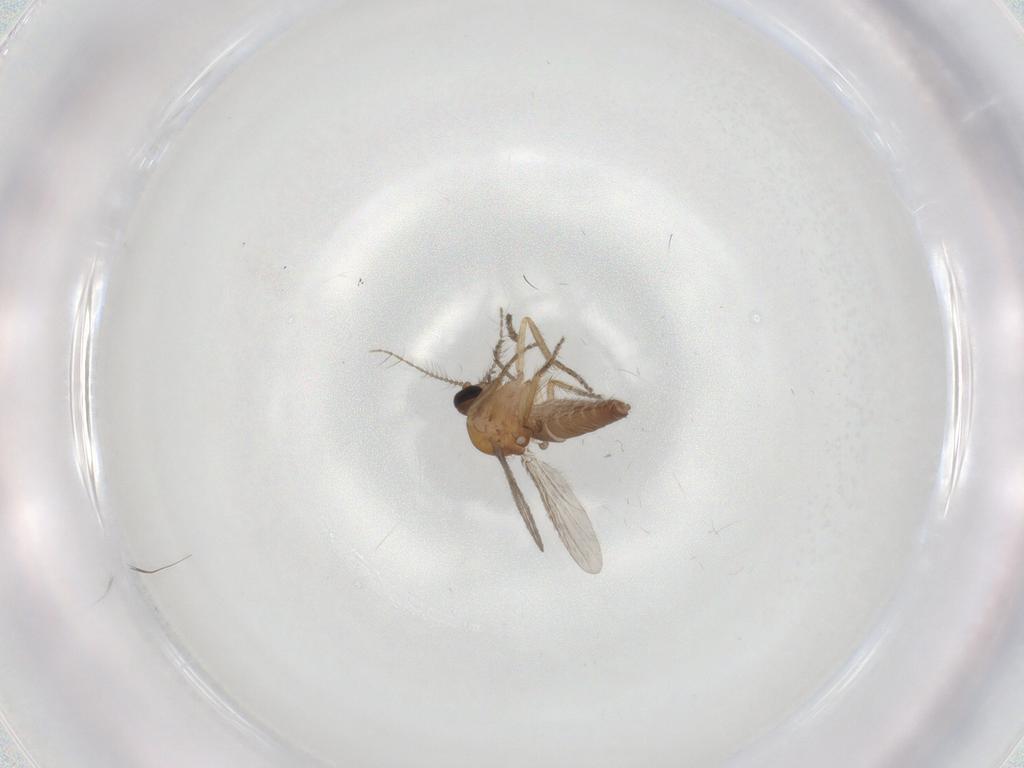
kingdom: Animalia
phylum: Arthropoda
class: Insecta
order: Diptera
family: Ceratopogonidae
